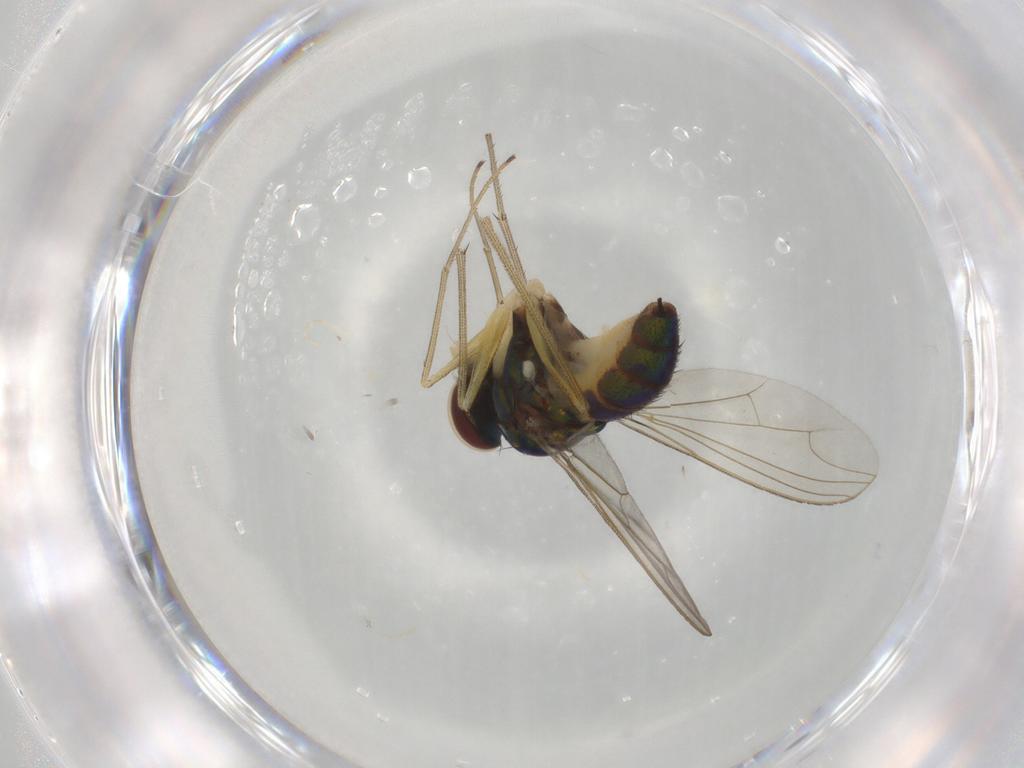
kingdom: Animalia
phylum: Arthropoda
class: Insecta
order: Diptera
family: Dolichopodidae
